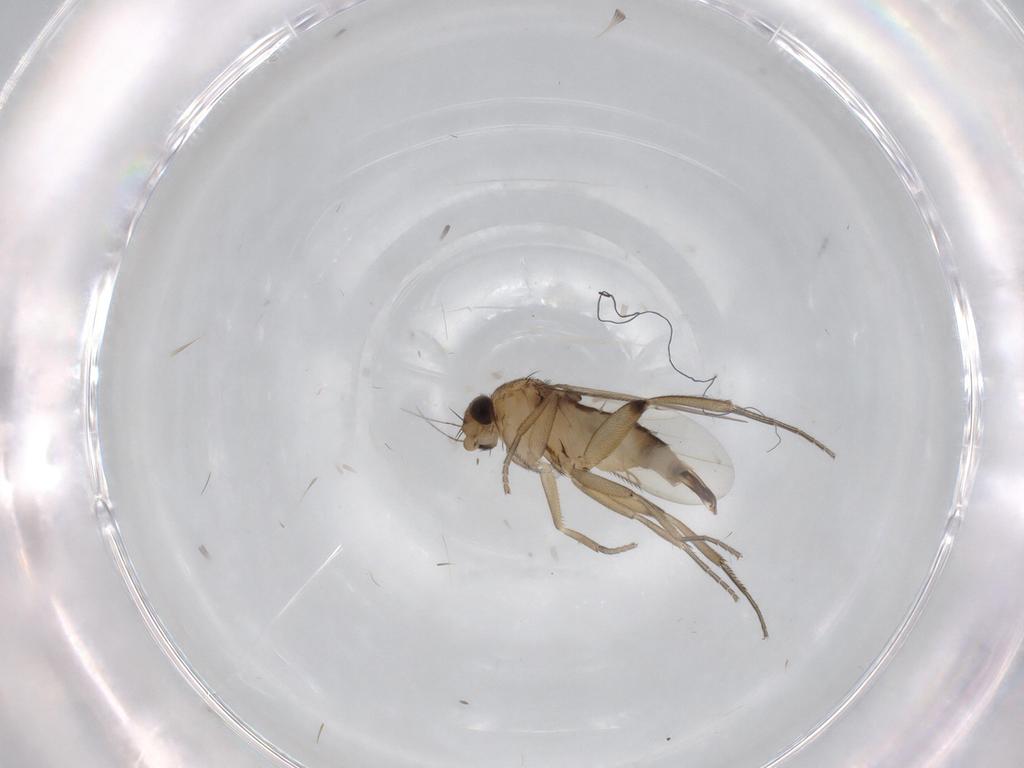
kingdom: Animalia
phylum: Arthropoda
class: Insecta
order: Diptera
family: Phoridae
